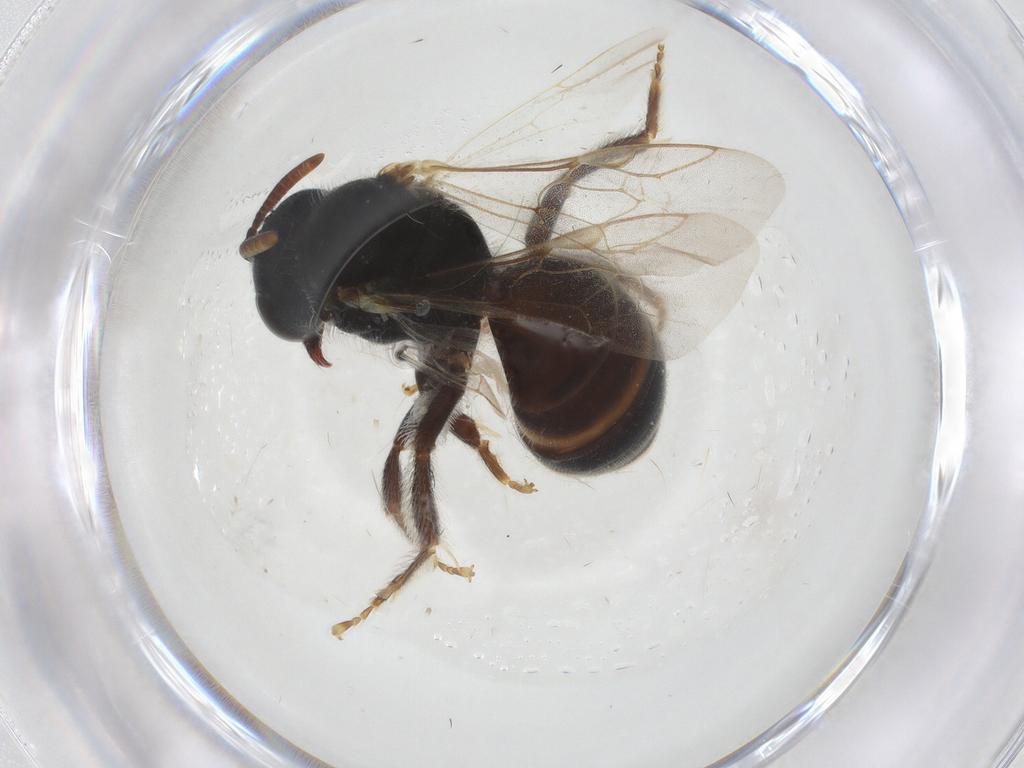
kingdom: Animalia
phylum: Arthropoda
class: Insecta
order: Hymenoptera
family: Formicidae
